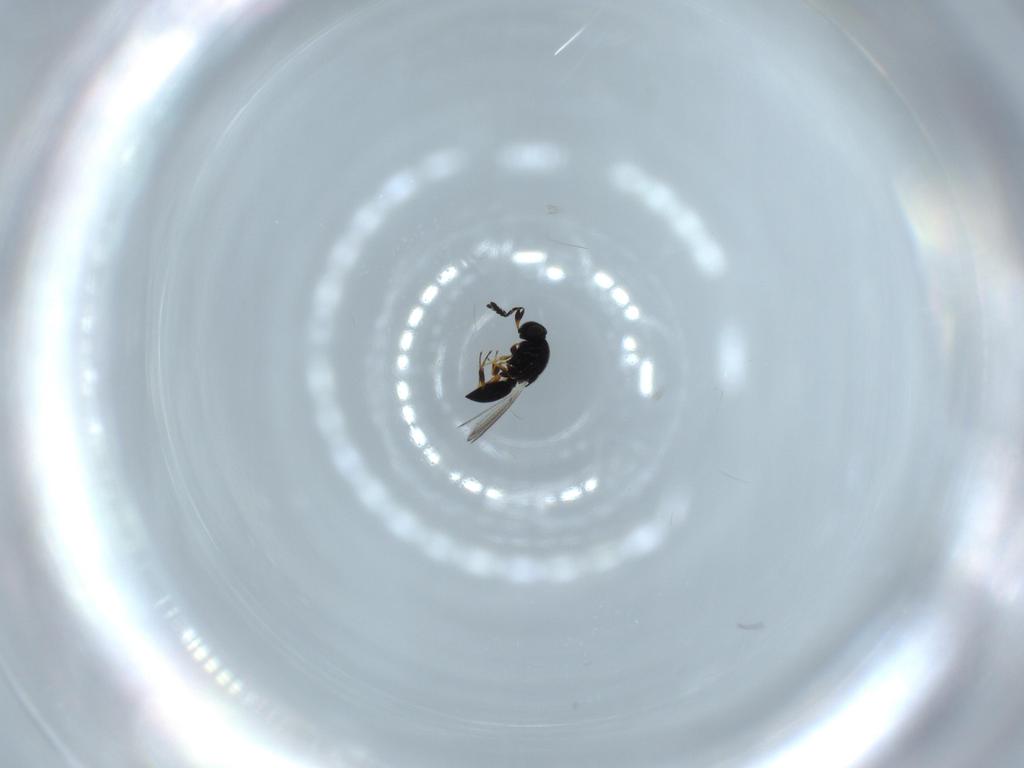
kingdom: Animalia
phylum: Arthropoda
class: Insecta
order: Hymenoptera
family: Platygastridae
